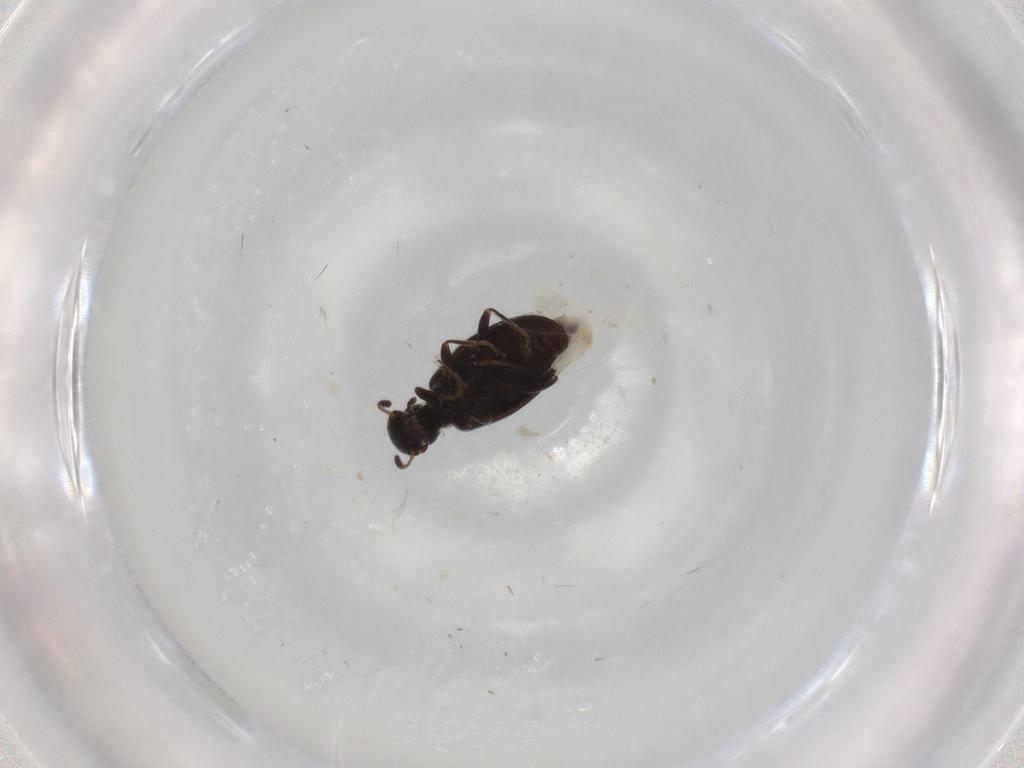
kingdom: Animalia
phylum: Arthropoda
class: Insecta
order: Coleoptera
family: Anthicidae
